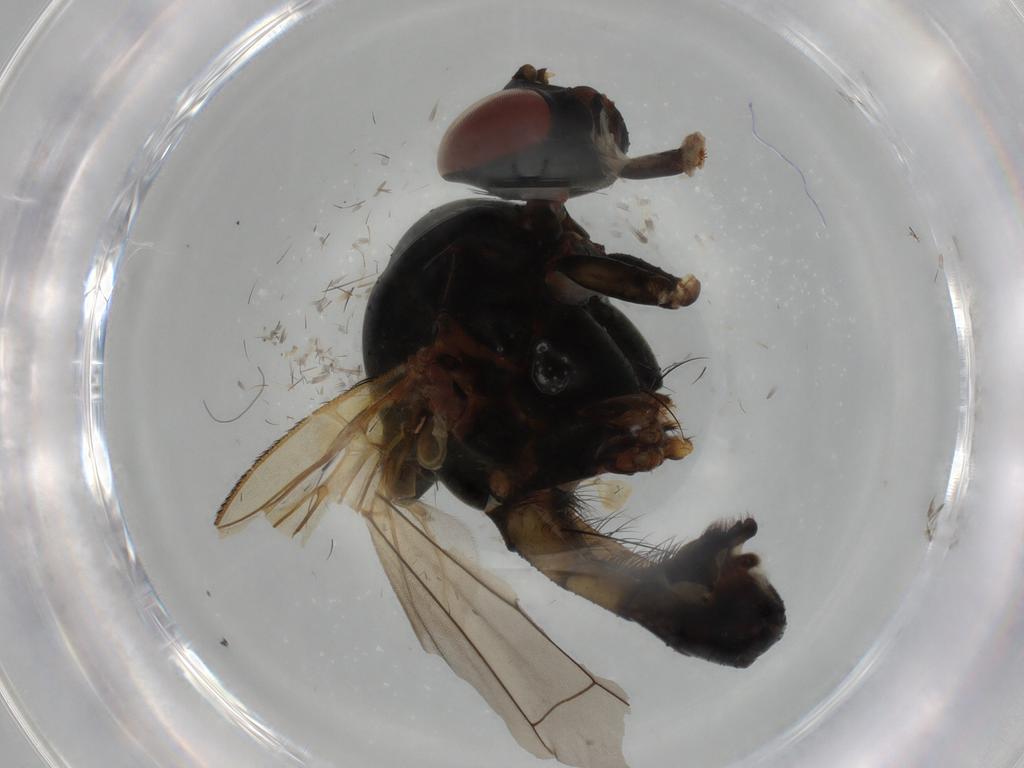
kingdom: Animalia
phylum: Arthropoda
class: Insecta
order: Diptera
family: Anthomyiidae
